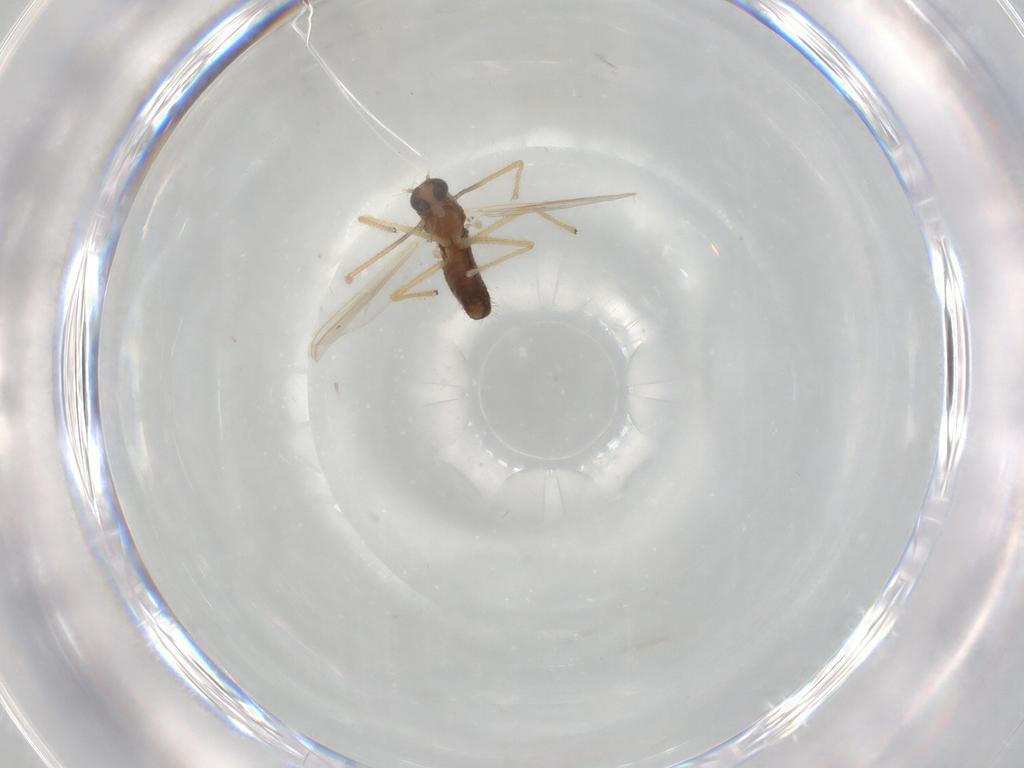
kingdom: Animalia
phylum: Arthropoda
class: Insecta
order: Diptera
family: Chironomidae
